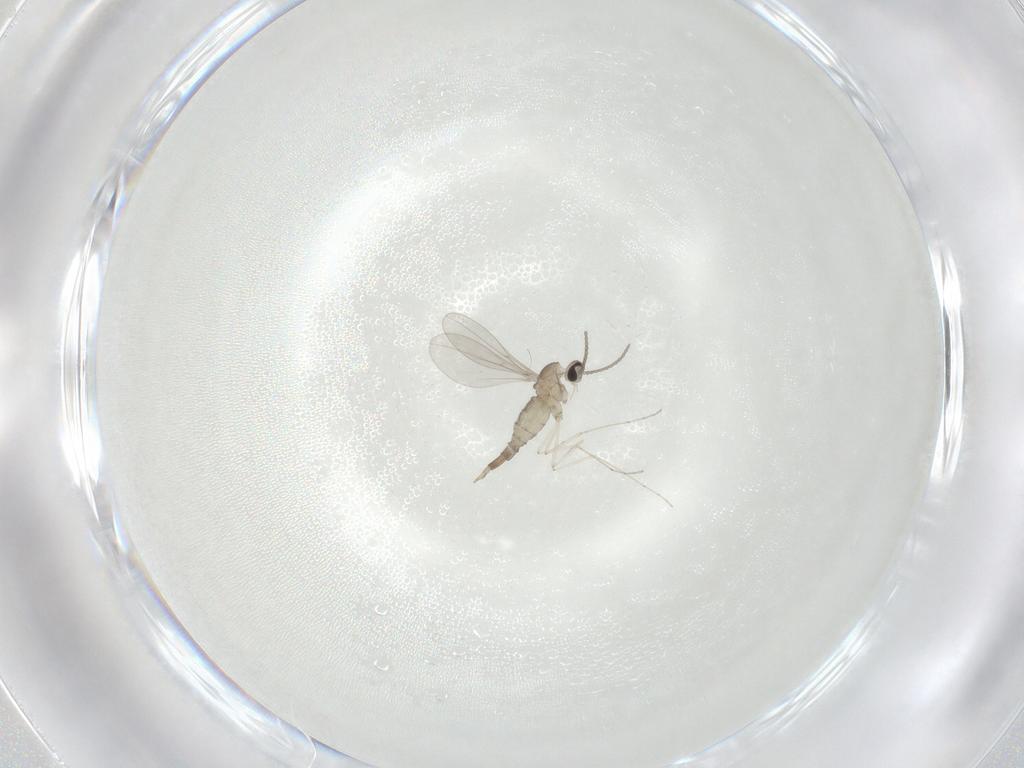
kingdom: Animalia
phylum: Arthropoda
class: Insecta
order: Diptera
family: Cecidomyiidae
